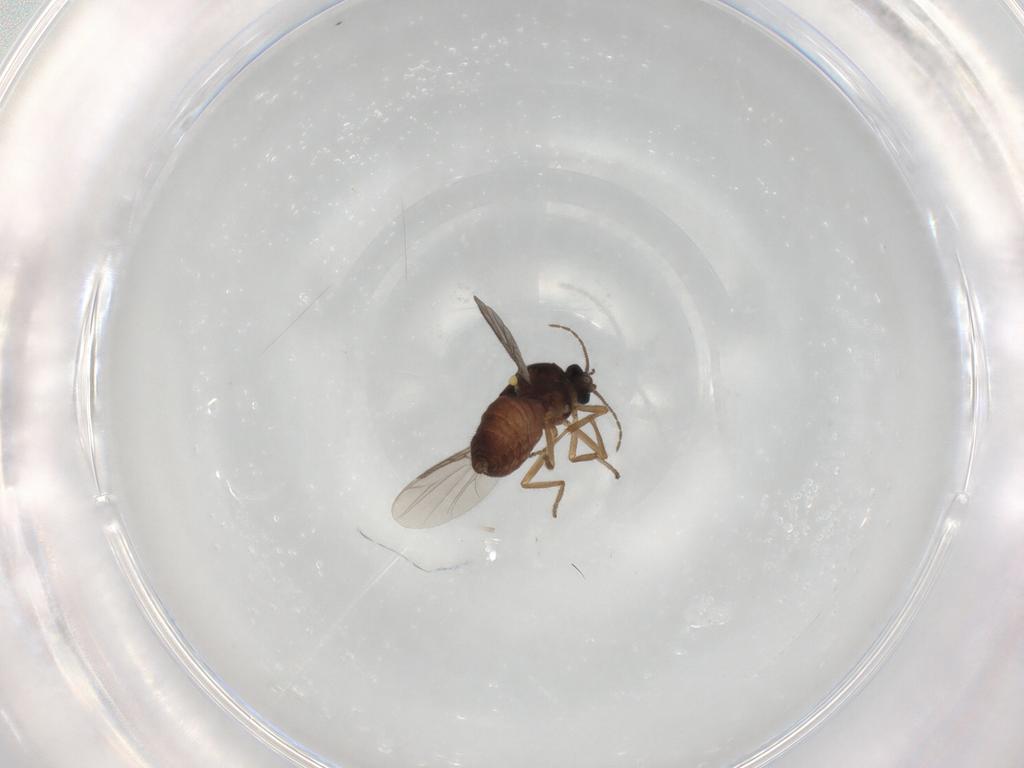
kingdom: Animalia
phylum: Arthropoda
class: Insecta
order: Diptera
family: Ceratopogonidae
